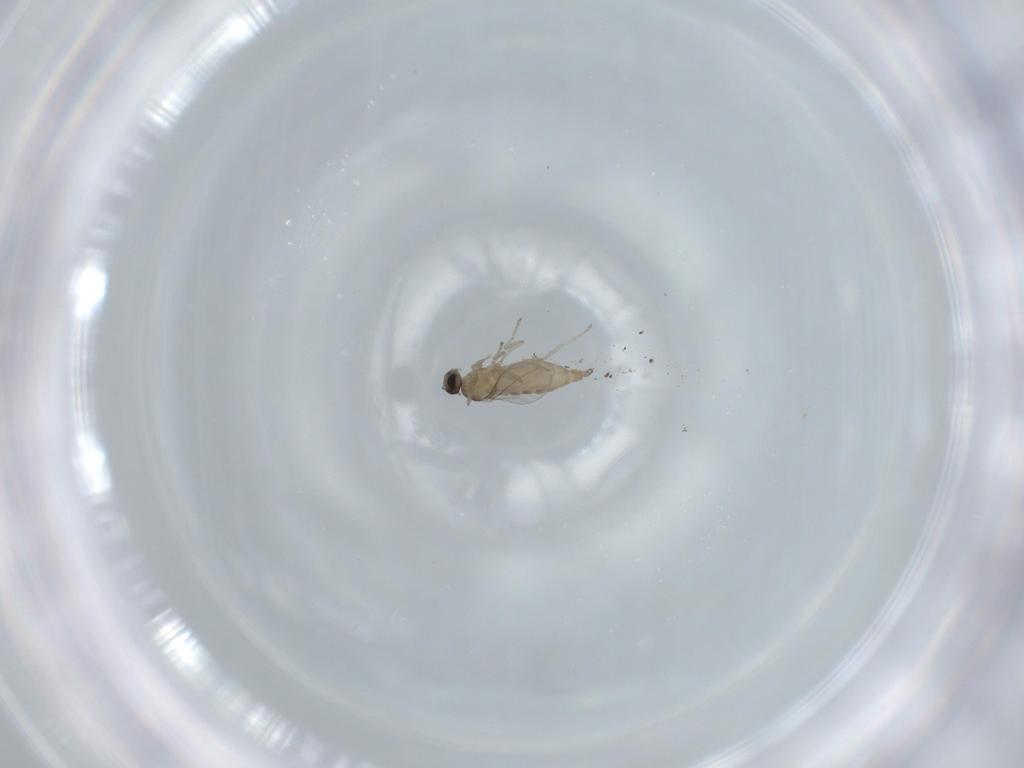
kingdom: Animalia
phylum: Arthropoda
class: Insecta
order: Diptera
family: Cecidomyiidae
